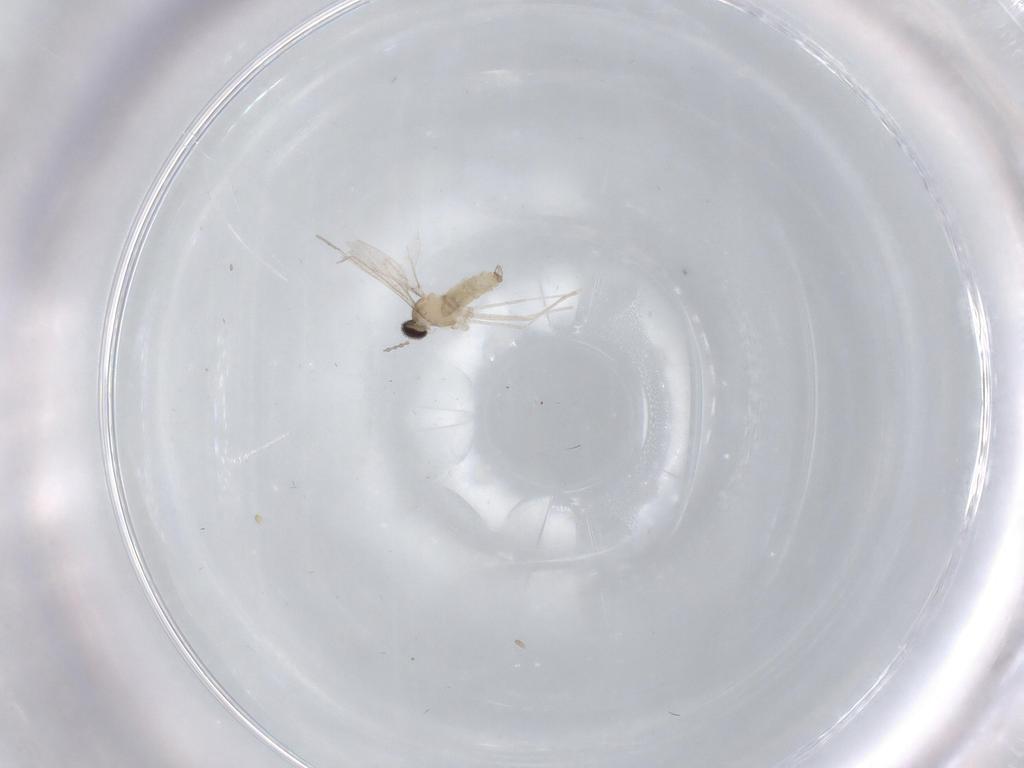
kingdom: Animalia
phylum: Arthropoda
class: Insecta
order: Diptera
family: Cecidomyiidae
